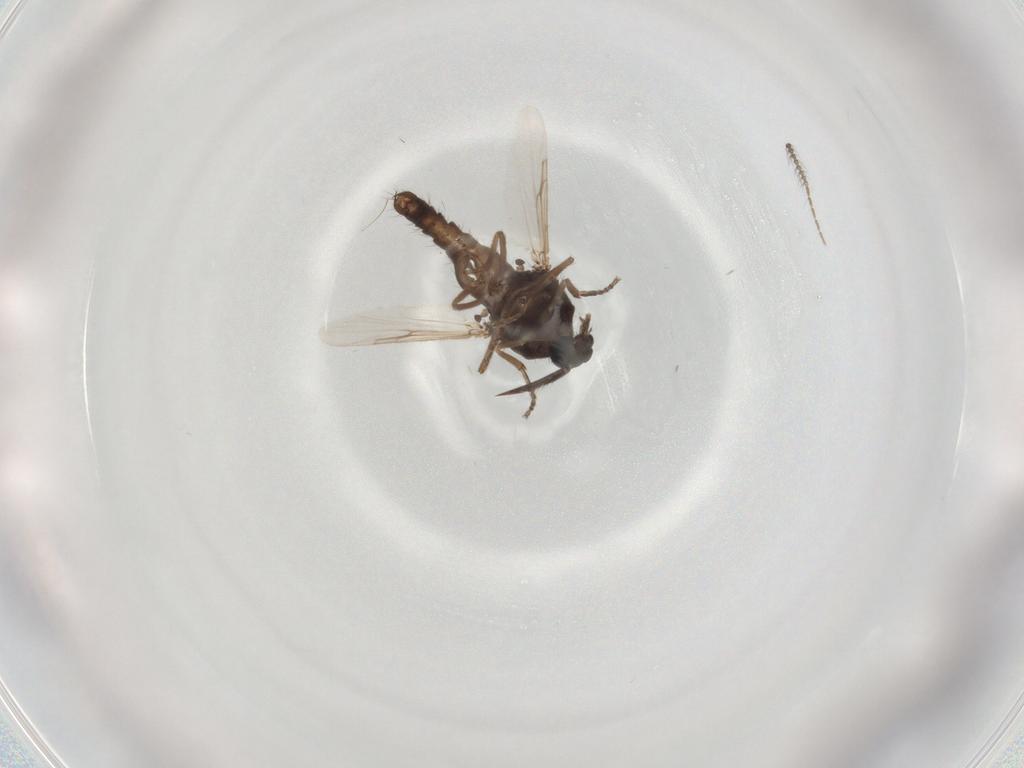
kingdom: Animalia
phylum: Arthropoda
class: Insecta
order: Diptera
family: Ceratopogonidae
